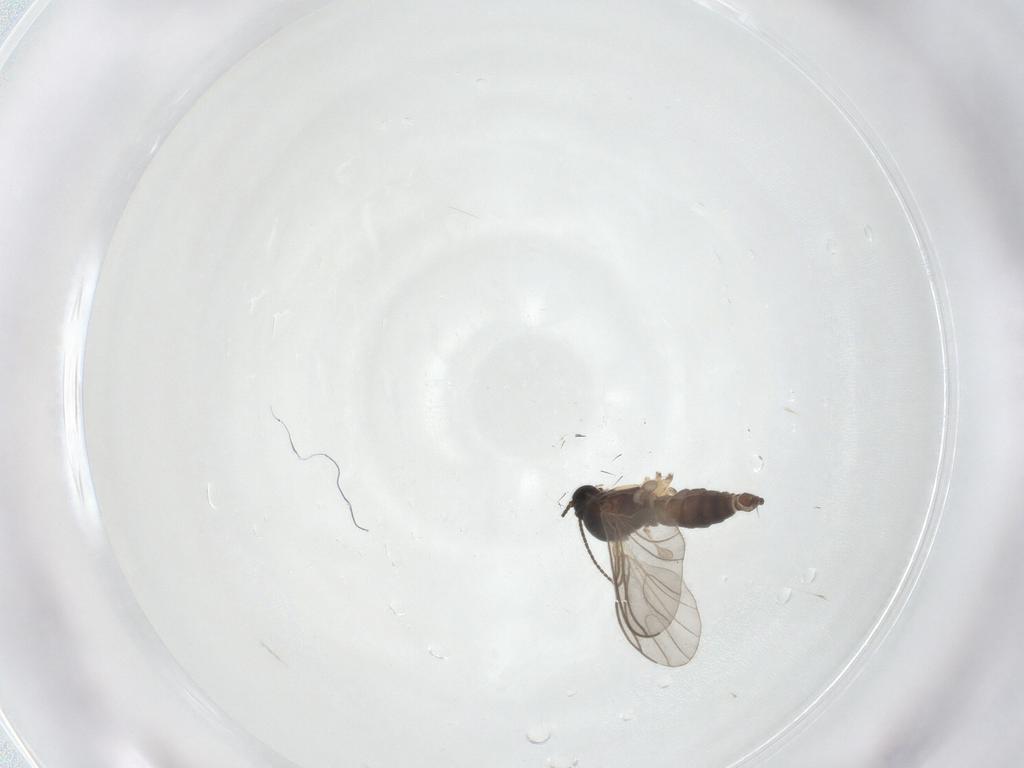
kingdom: Animalia
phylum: Arthropoda
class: Insecta
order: Diptera
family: Sciaridae
